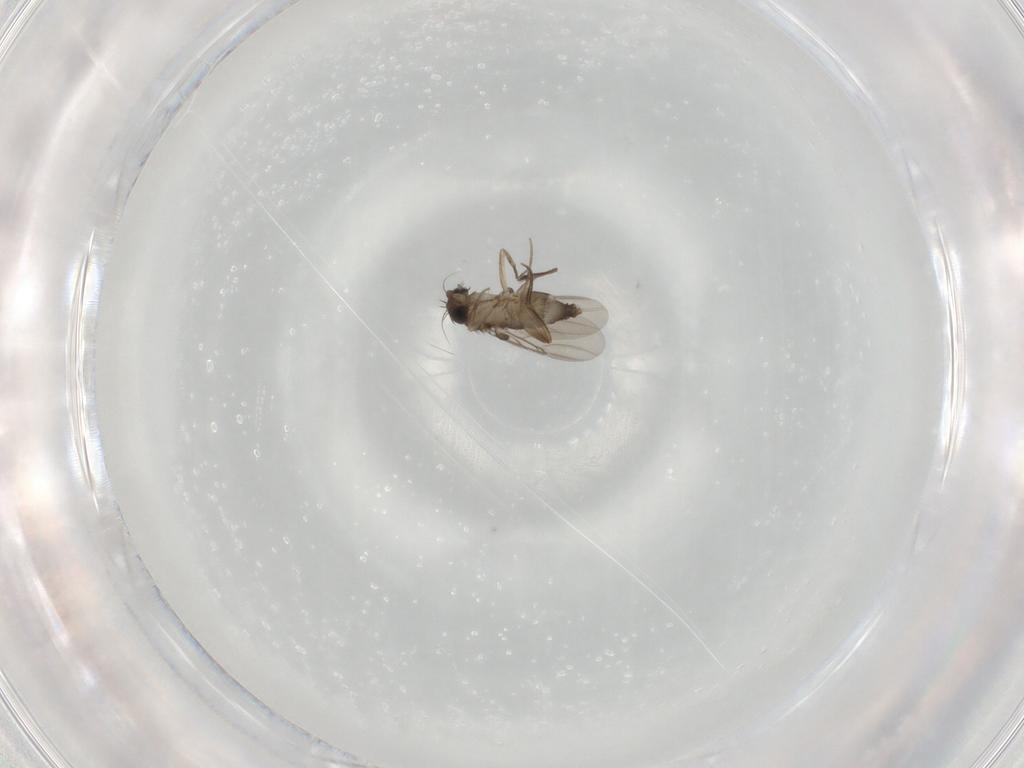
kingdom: Animalia
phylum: Arthropoda
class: Insecta
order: Diptera
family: Phoridae
